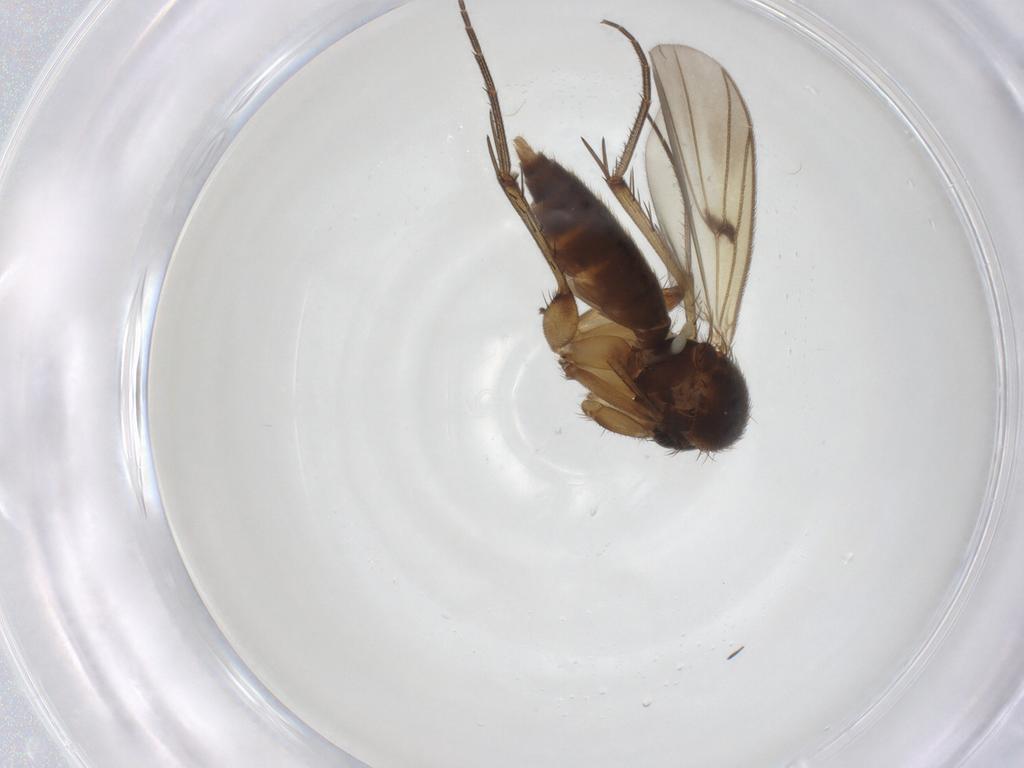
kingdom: Animalia
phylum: Arthropoda
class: Insecta
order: Diptera
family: Mycetophilidae
